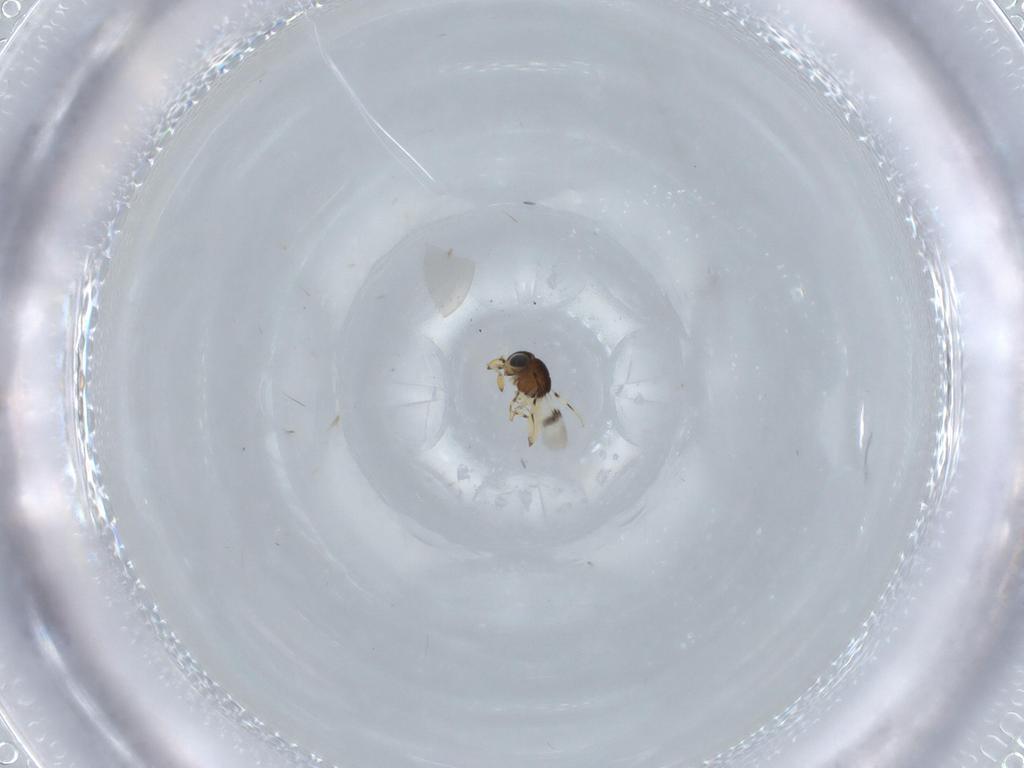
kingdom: Animalia
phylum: Arthropoda
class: Insecta
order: Hymenoptera
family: Scelionidae
